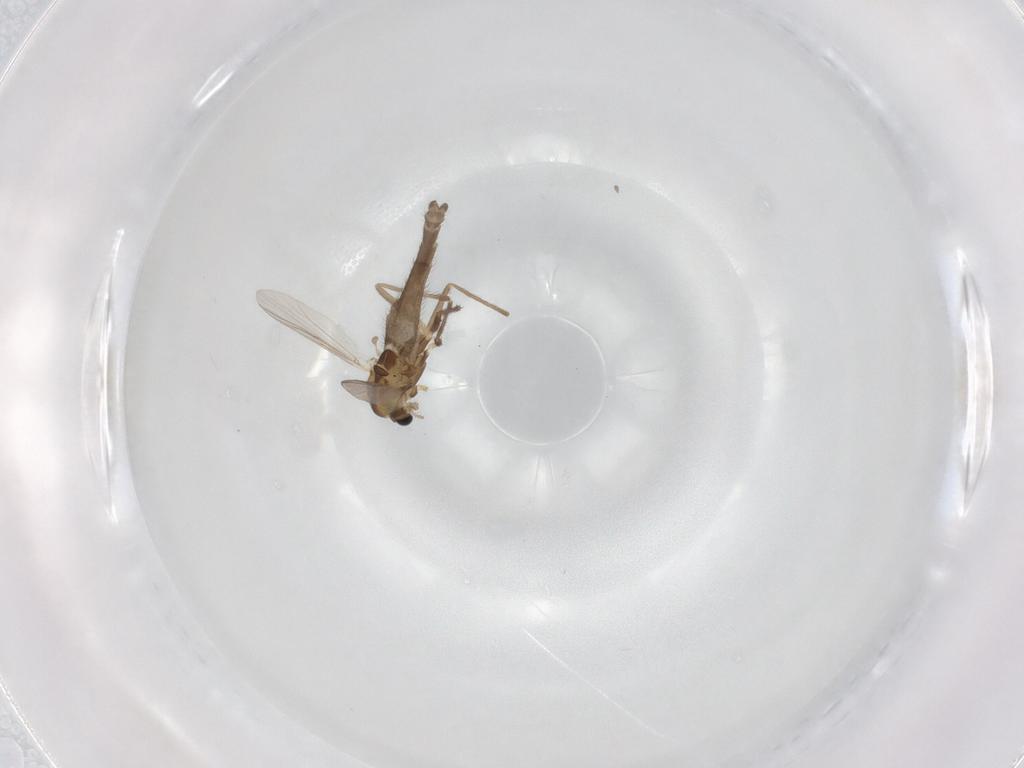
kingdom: Animalia
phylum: Arthropoda
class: Insecta
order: Diptera
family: Chironomidae
